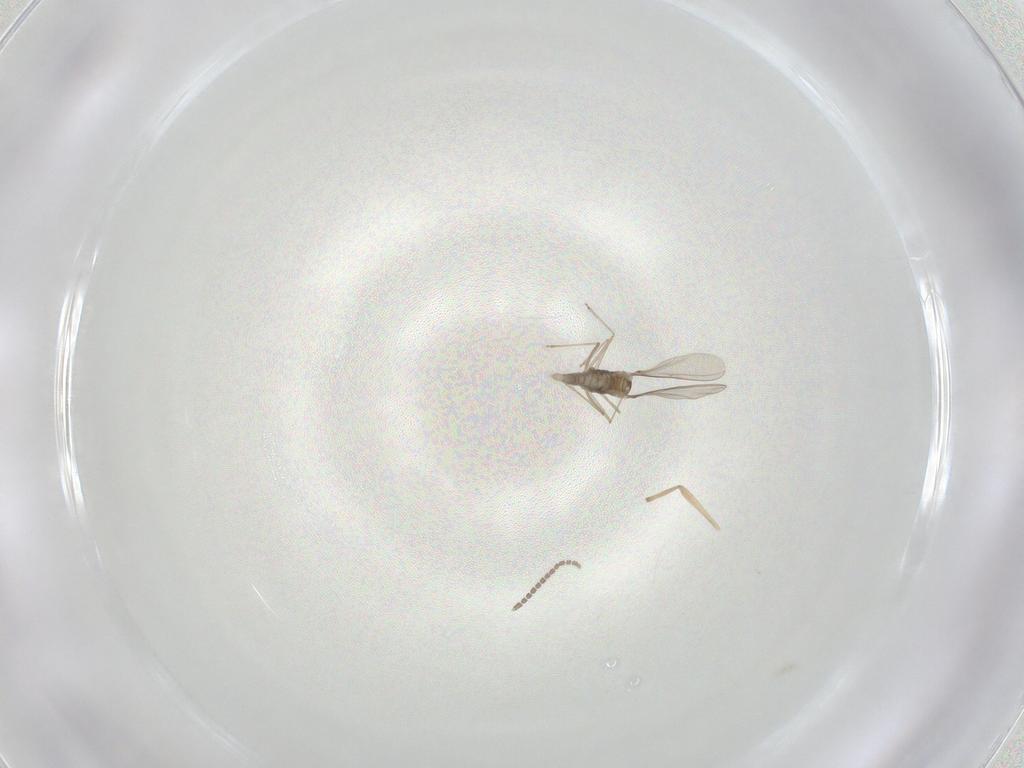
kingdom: Animalia
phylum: Arthropoda
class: Insecta
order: Diptera
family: Cecidomyiidae
